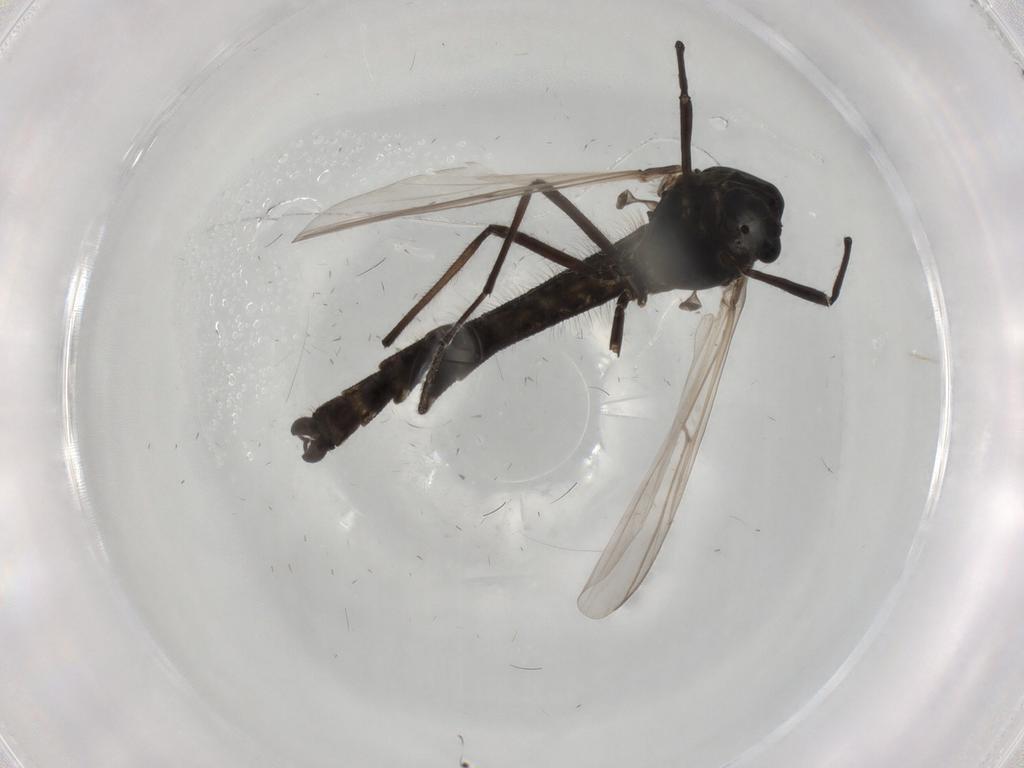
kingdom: Animalia
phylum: Arthropoda
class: Insecta
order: Diptera
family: Chironomidae
